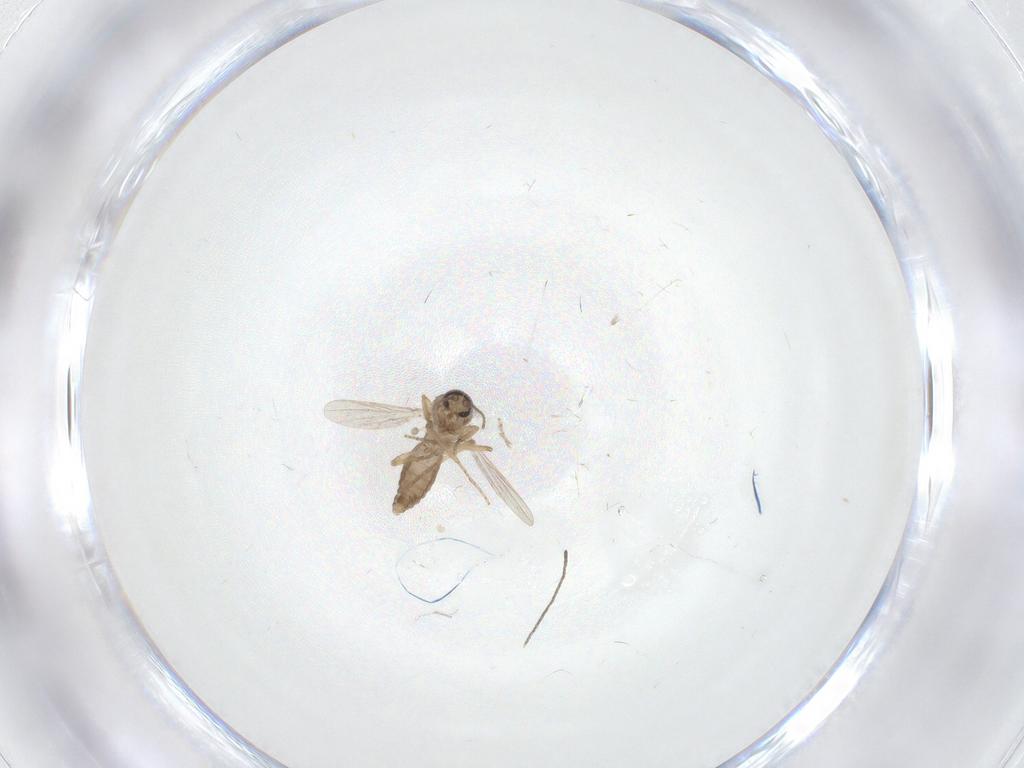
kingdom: Animalia
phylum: Arthropoda
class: Insecta
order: Diptera
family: Ceratopogonidae
